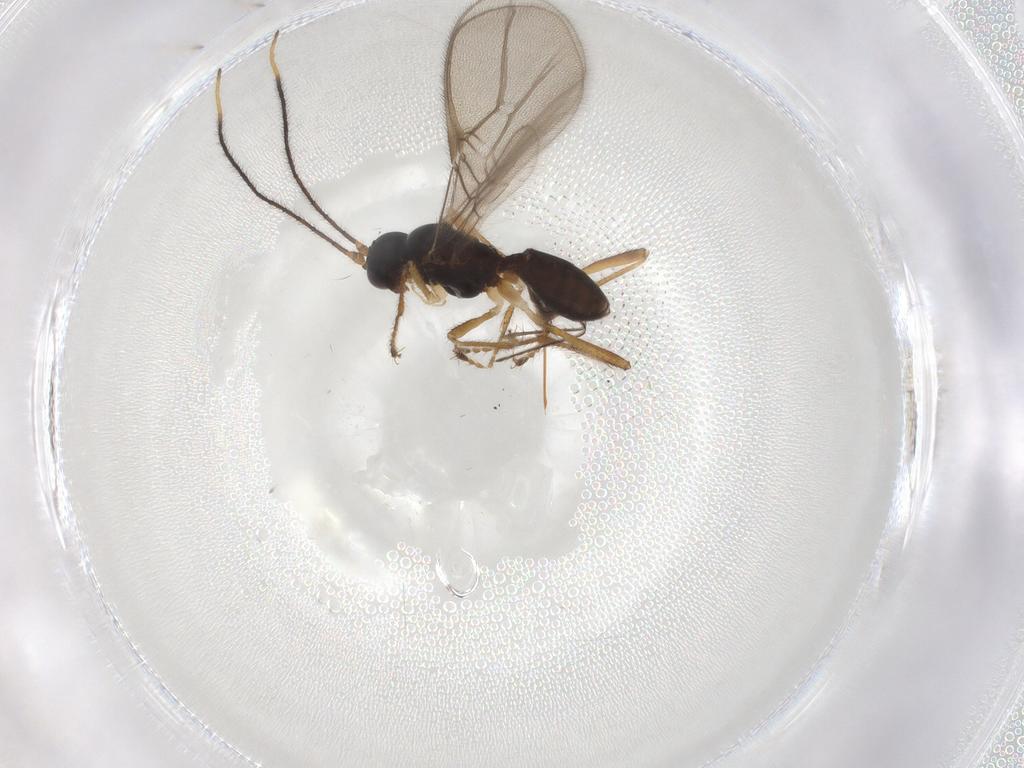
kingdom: Animalia
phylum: Arthropoda
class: Insecta
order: Hymenoptera
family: Braconidae
